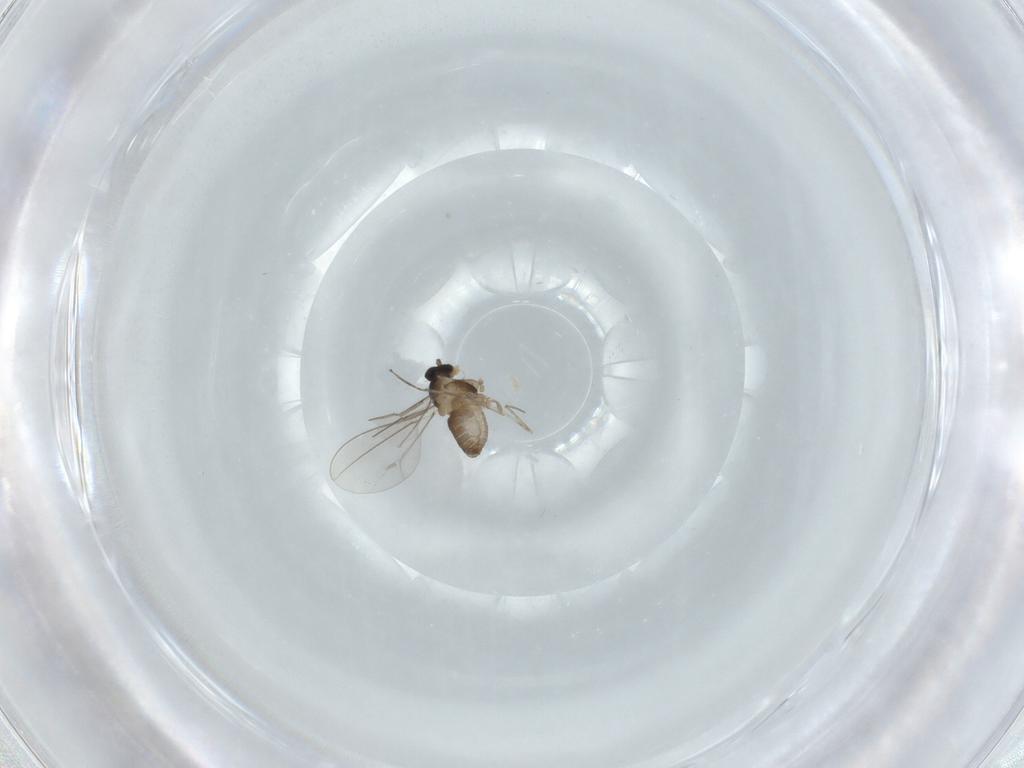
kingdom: Animalia
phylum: Arthropoda
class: Insecta
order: Diptera
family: Cecidomyiidae
